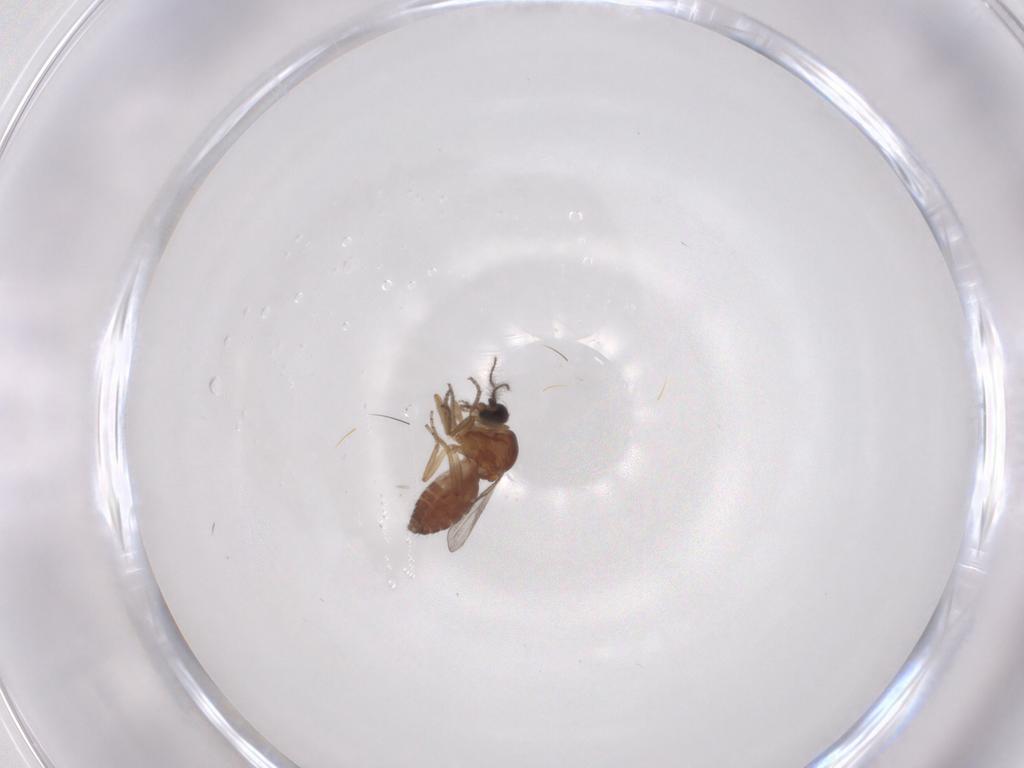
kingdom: Animalia
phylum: Arthropoda
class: Insecta
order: Diptera
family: Ceratopogonidae
